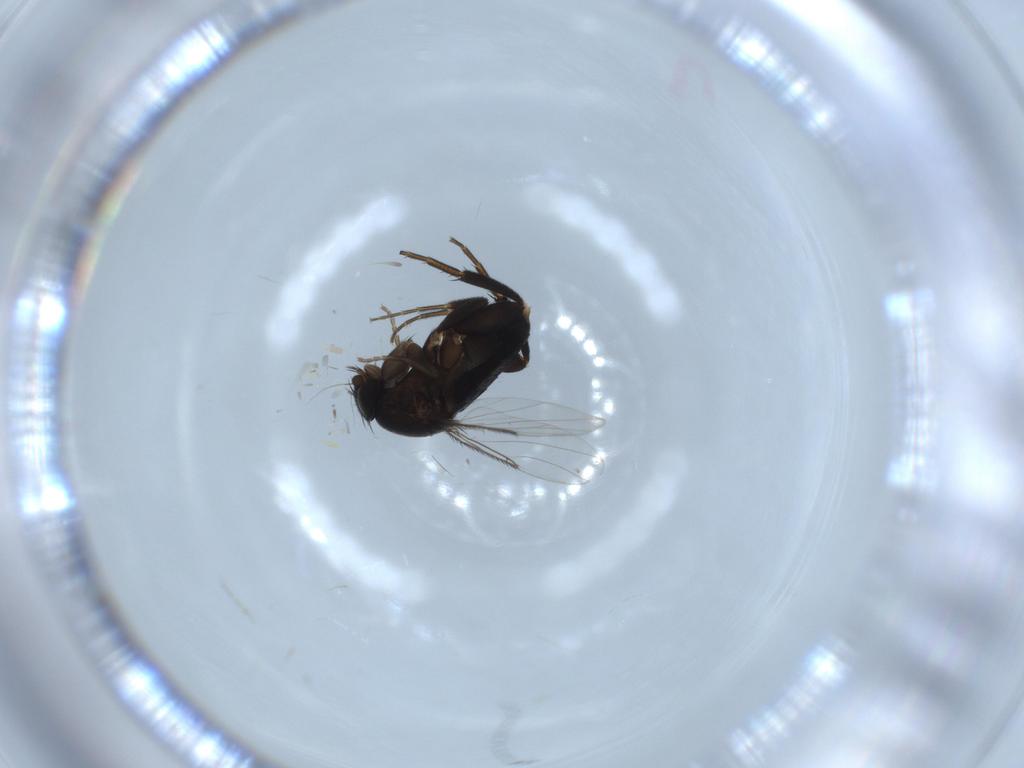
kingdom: Animalia
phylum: Arthropoda
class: Insecta
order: Diptera
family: Phoridae
